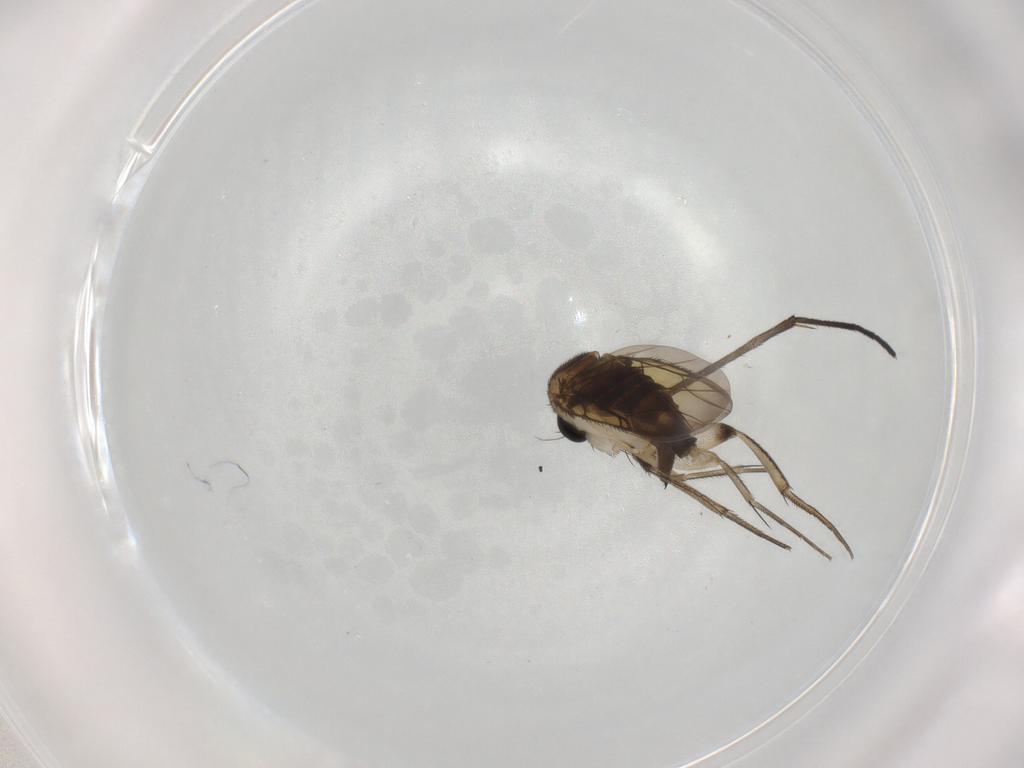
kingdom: Animalia
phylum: Arthropoda
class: Insecta
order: Diptera
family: Phoridae
